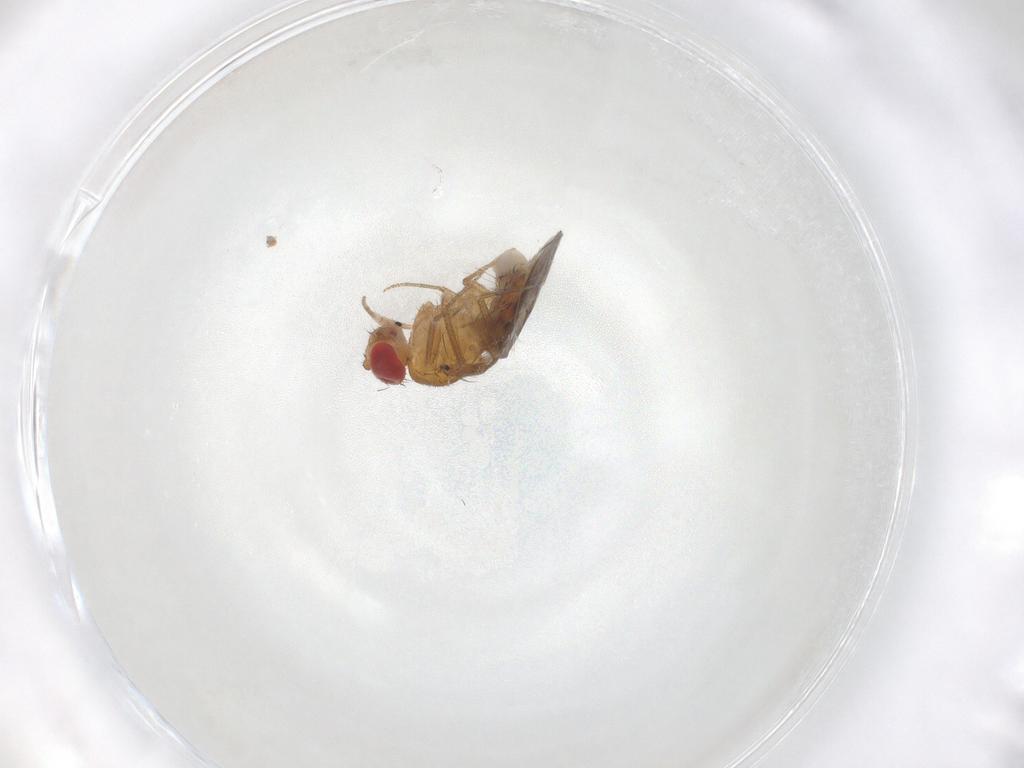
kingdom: Animalia
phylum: Arthropoda
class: Insecta
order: Diptera
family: Drosophilidae
